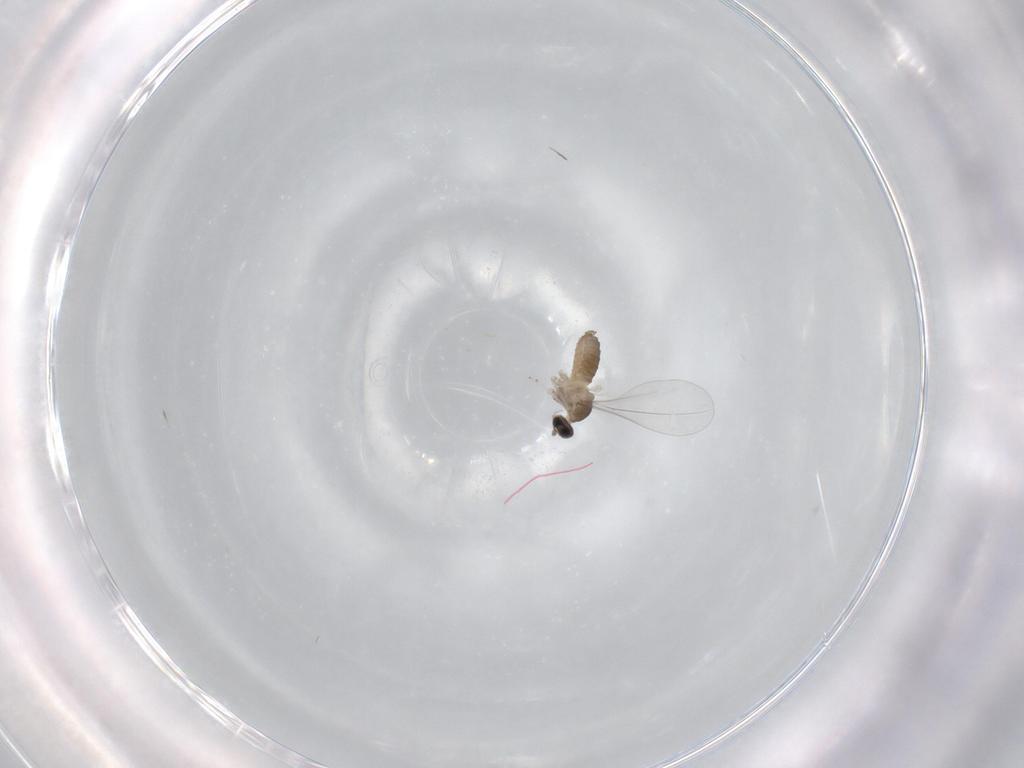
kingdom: Animalia
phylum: Arthropoda
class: Insecta
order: Diptera
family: Cecidomyiidae
